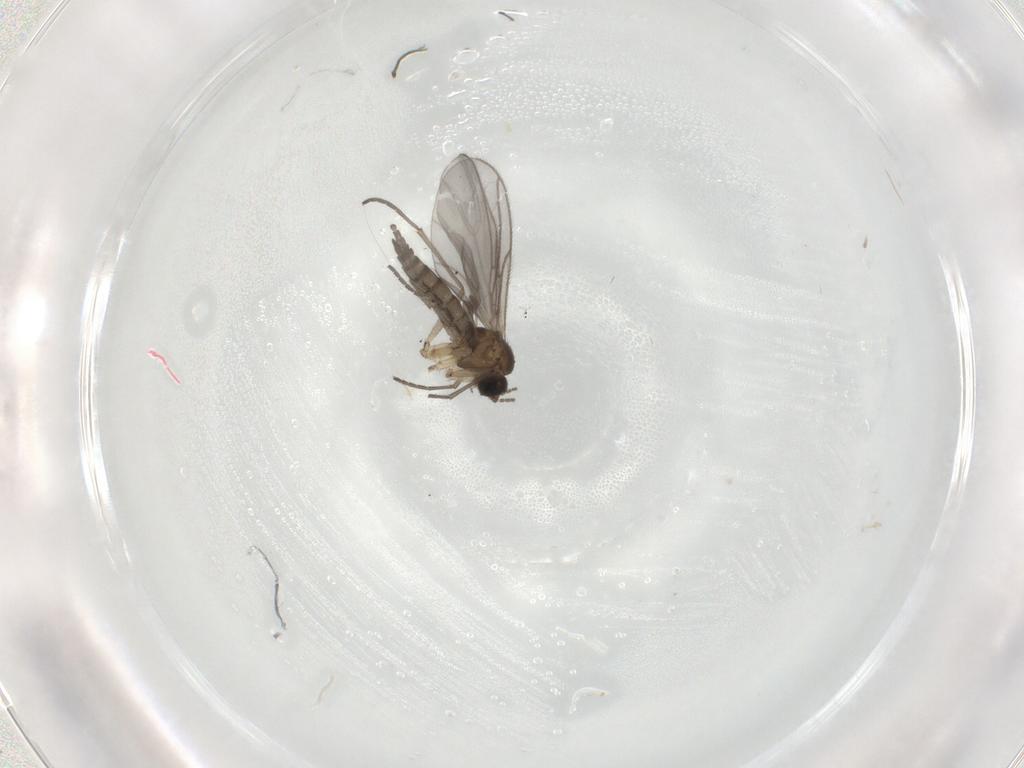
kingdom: Animalia
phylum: Arthropoda
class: Insecta
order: Diptera
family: Sciaridae
